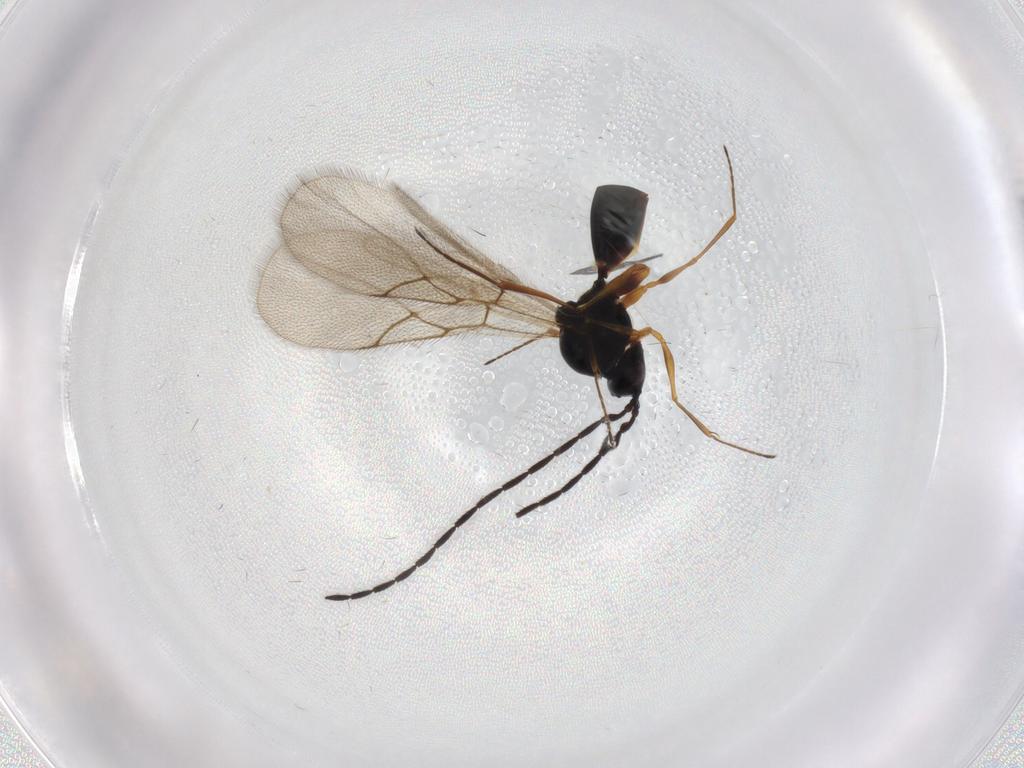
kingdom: Animalia
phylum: Arthropoda
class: Insecta
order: Hymenoptera
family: Figitidae
